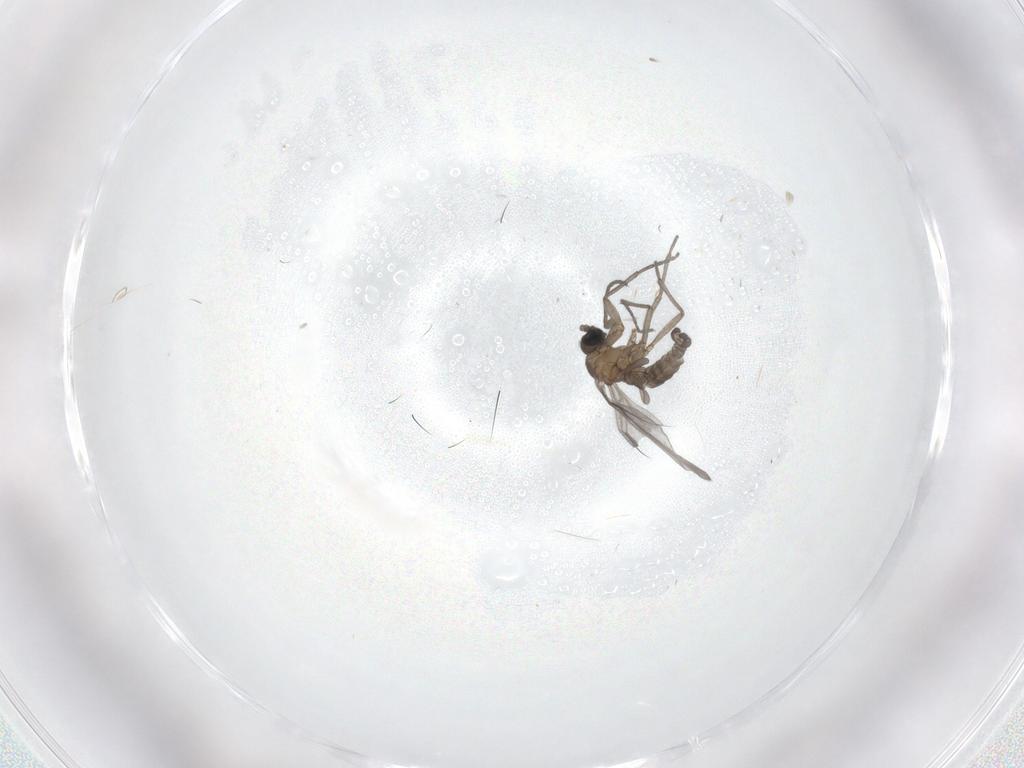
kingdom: Animalia
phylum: Arthropoda
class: Insecta
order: Diptera
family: Sciaridae
